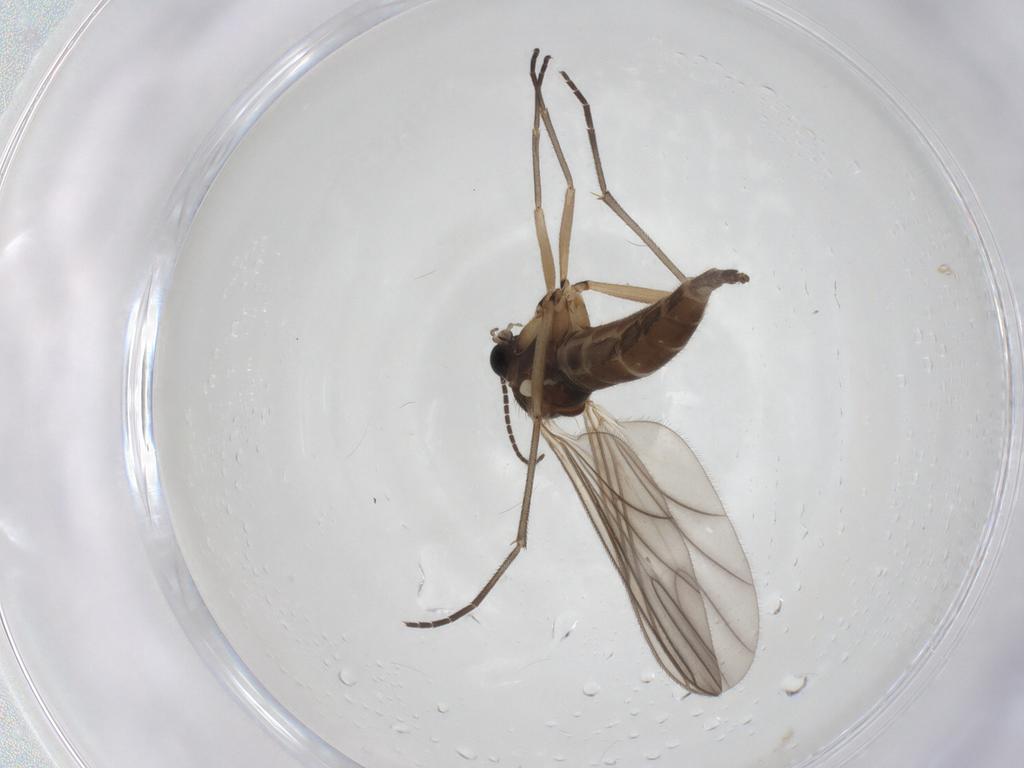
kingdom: Animalia
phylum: Arthropoda
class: Insecta
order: Diptera
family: Sciaridae
